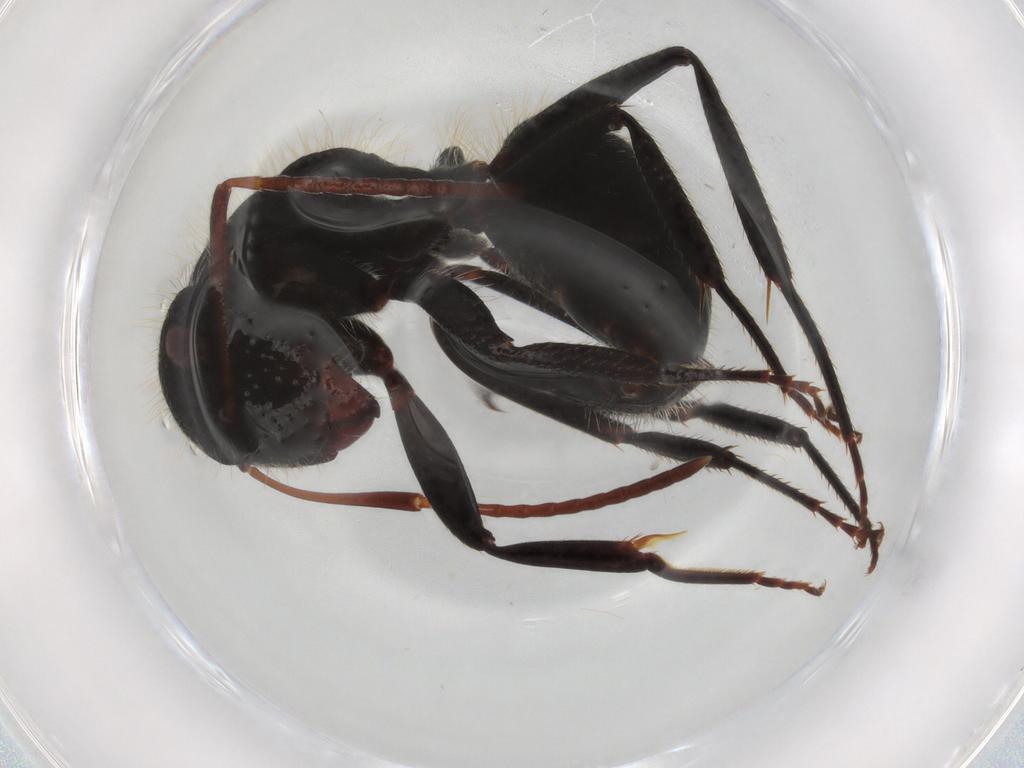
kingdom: Animalia
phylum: Arthropoda
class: Insecta
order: Hymenoptera
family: Formicidae
